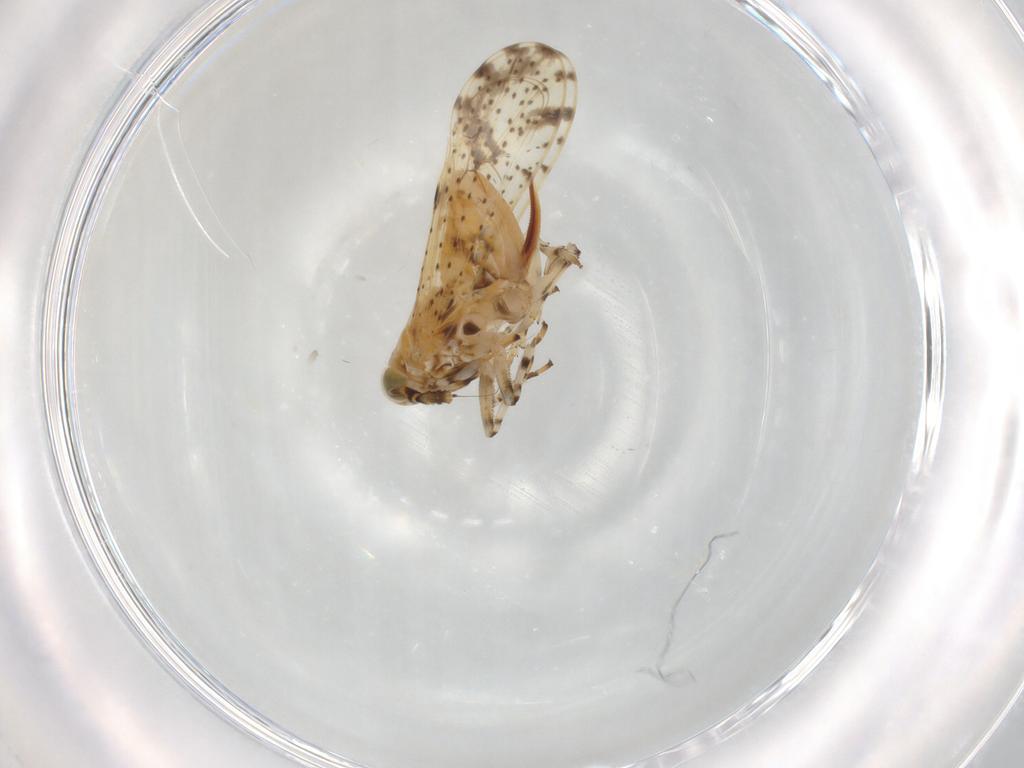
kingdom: Animalia
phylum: Arthropoda
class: Insecta
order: Hemiptera
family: Delphacidae
